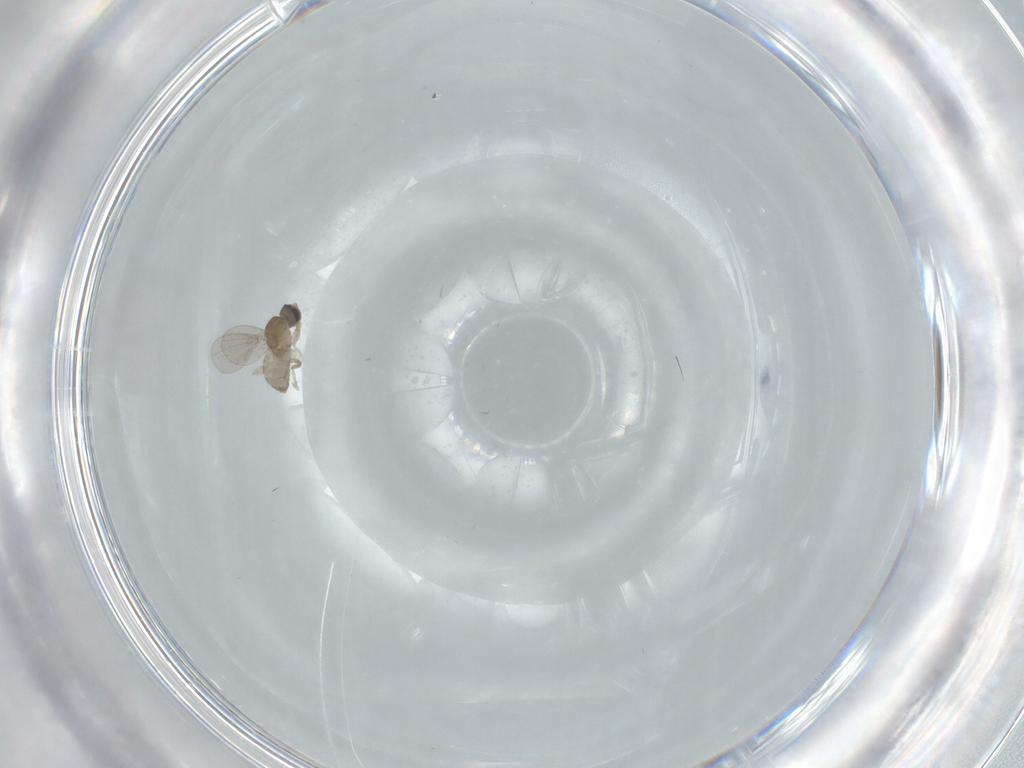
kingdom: Animalia
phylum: Arthropoda
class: Insecta
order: Diptera
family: Cecidomyiidae
